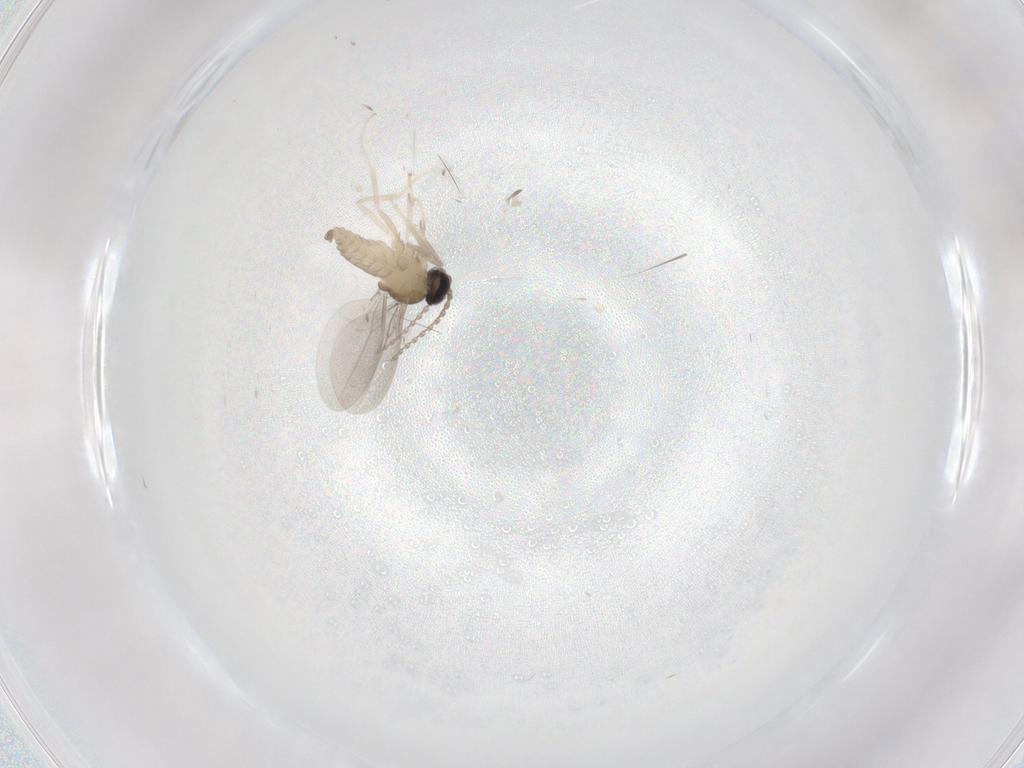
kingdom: Animalia
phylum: Arthropoda
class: Insecta
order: Diptera
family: Cecidomyiidae
